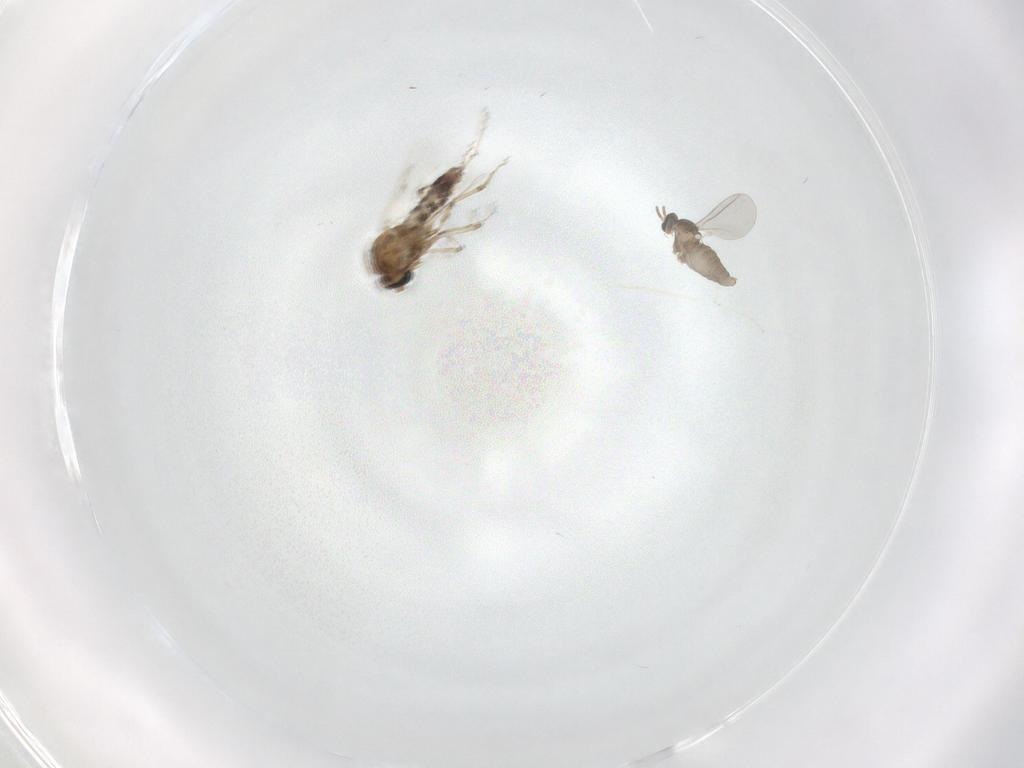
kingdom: Animalia
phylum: Arthropoda
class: Insecta
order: Diptera
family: Ceratopogonidae
